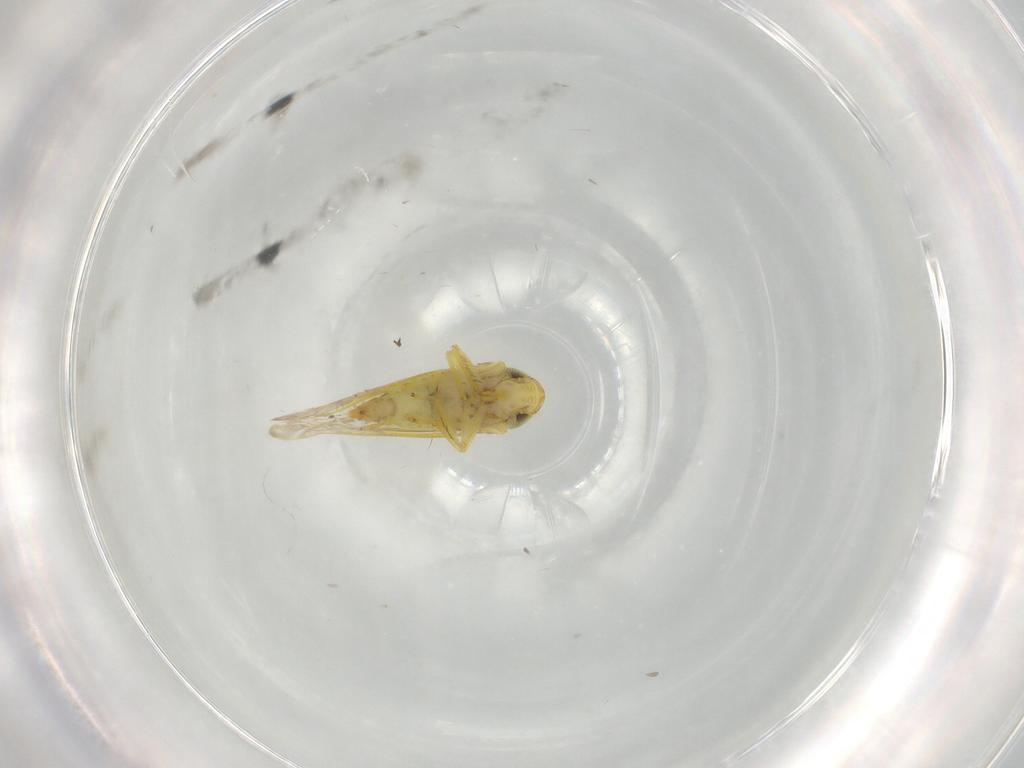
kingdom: Animalia
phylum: Arthropoda
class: Insecta
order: Hemiptera
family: Cicadellidae
